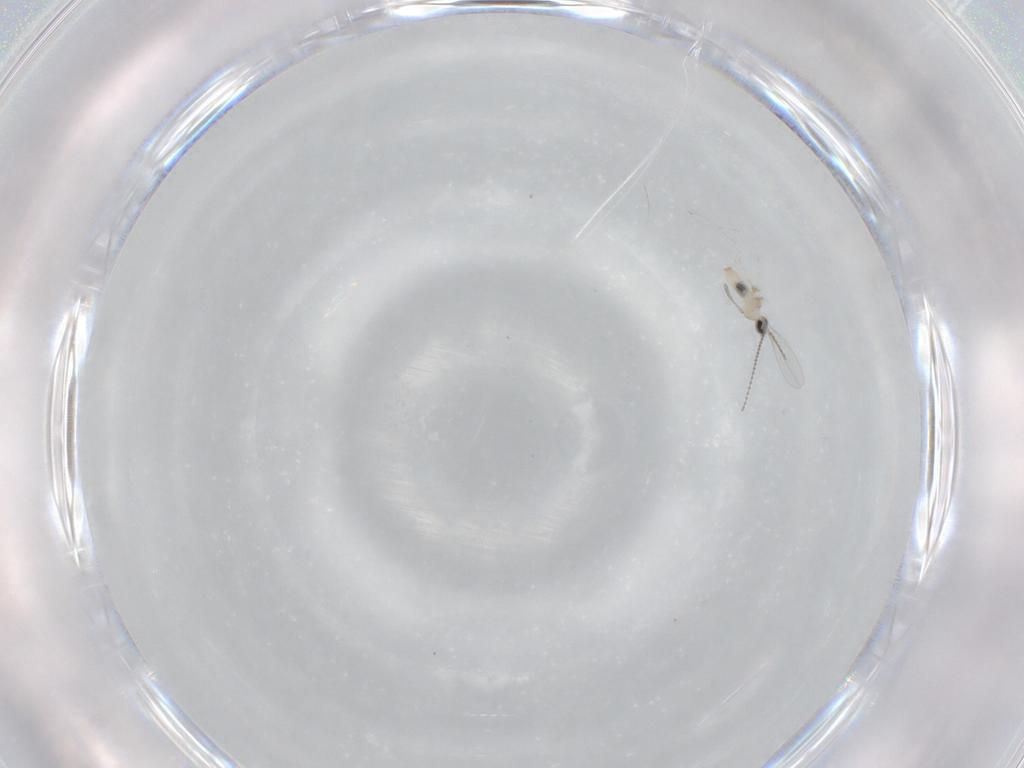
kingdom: Animalia
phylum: Arthropoda
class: Insecta
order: Diptera
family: Cecidomyiidae
